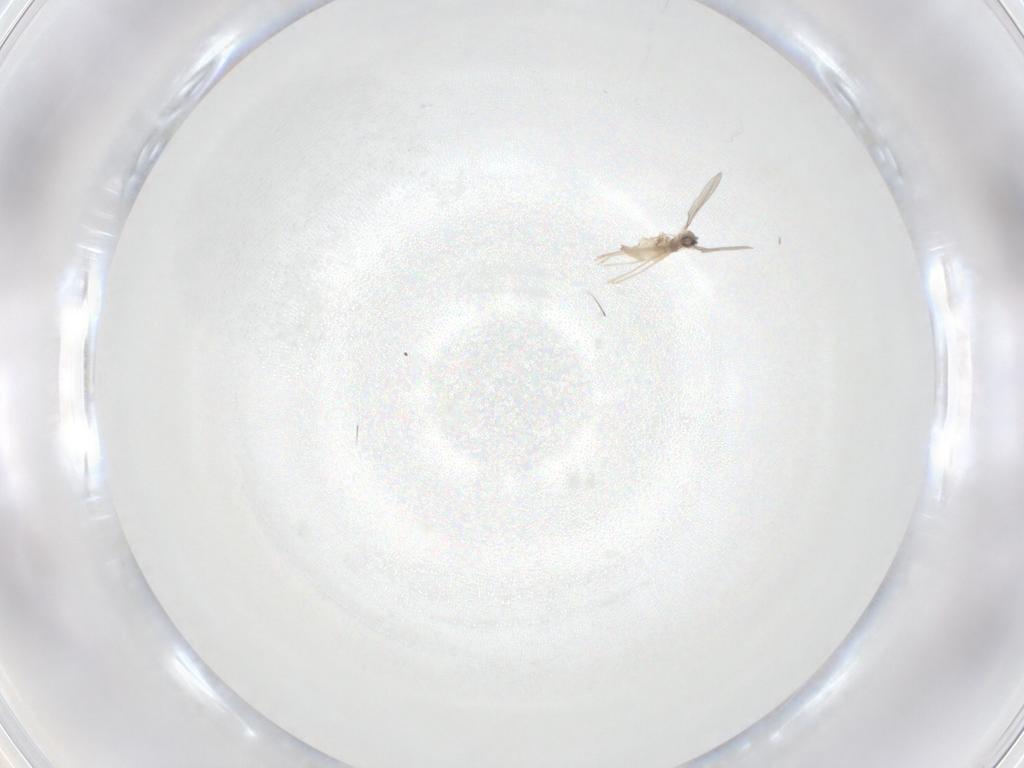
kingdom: Animalia
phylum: Arthropoda
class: Insecta
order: Diptera
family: Cecidomyiidae
